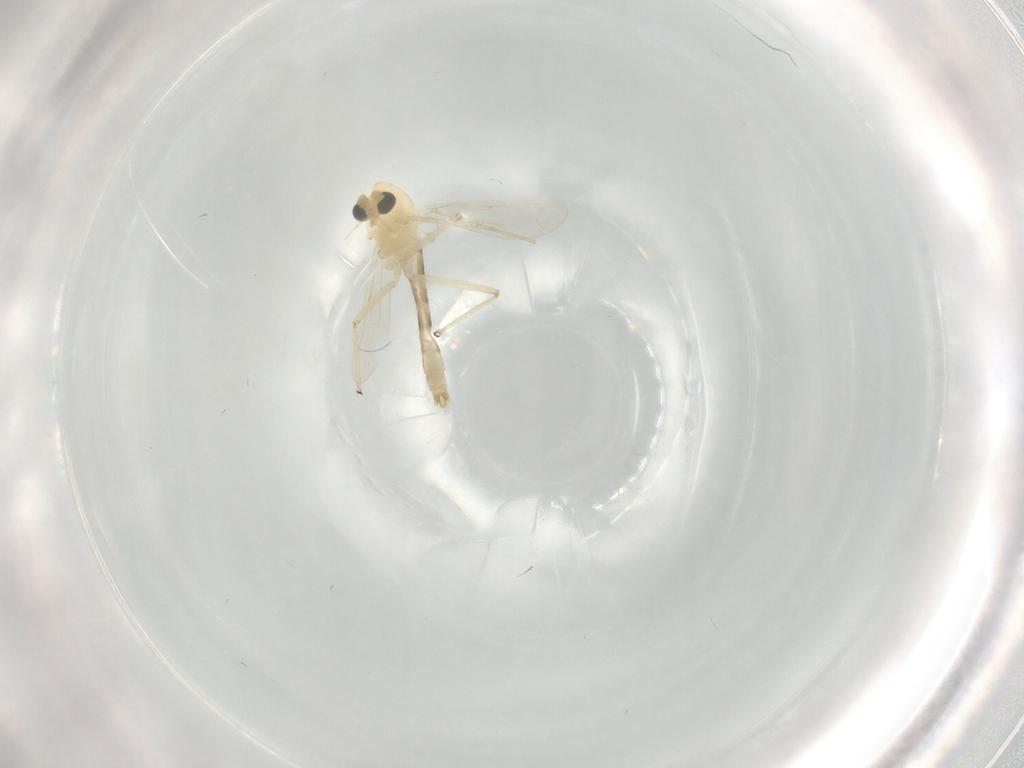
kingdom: Animalia
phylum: Arthropoda
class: Insecta
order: Diptera
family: Chironomidae
